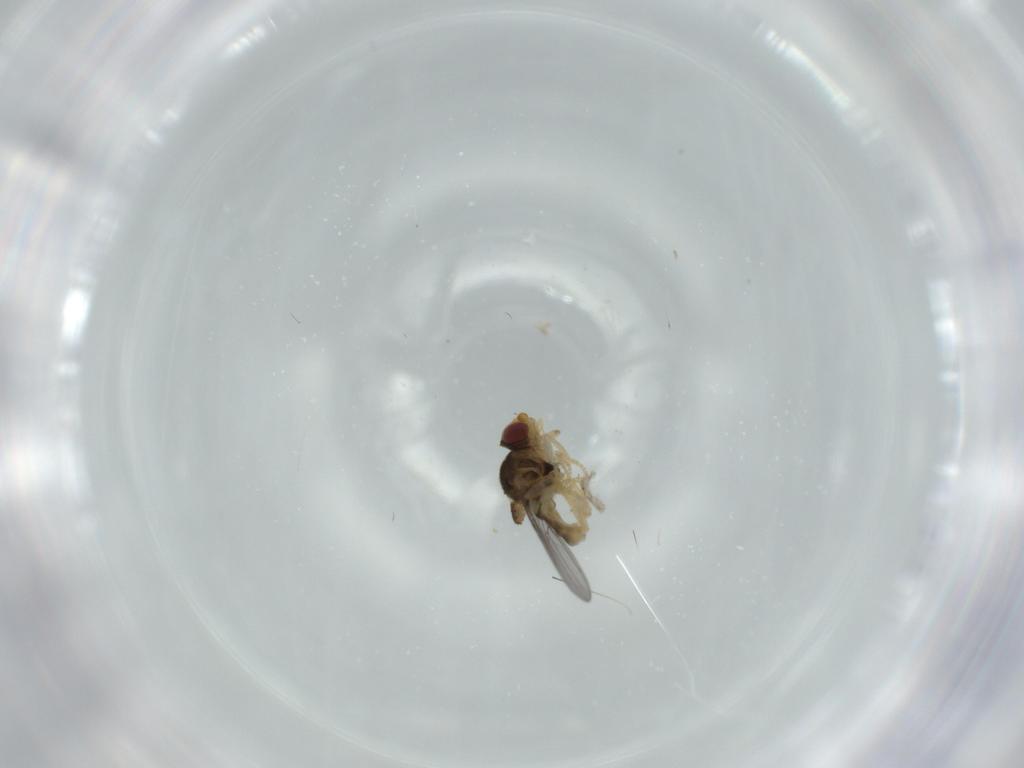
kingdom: Animalia
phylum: Arthropoda
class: Insecta
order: Diptera
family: Chloropidae
